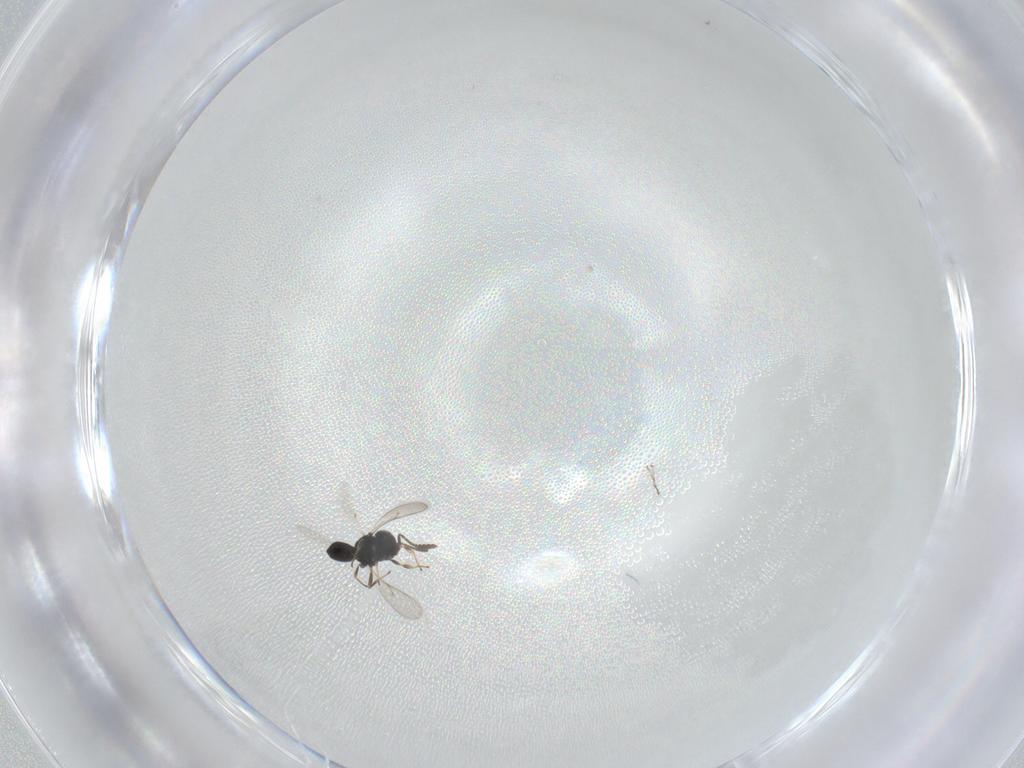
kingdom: Animalia
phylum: Arthropoda
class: Insecta
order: Hymenoptera
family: Scelionidae
